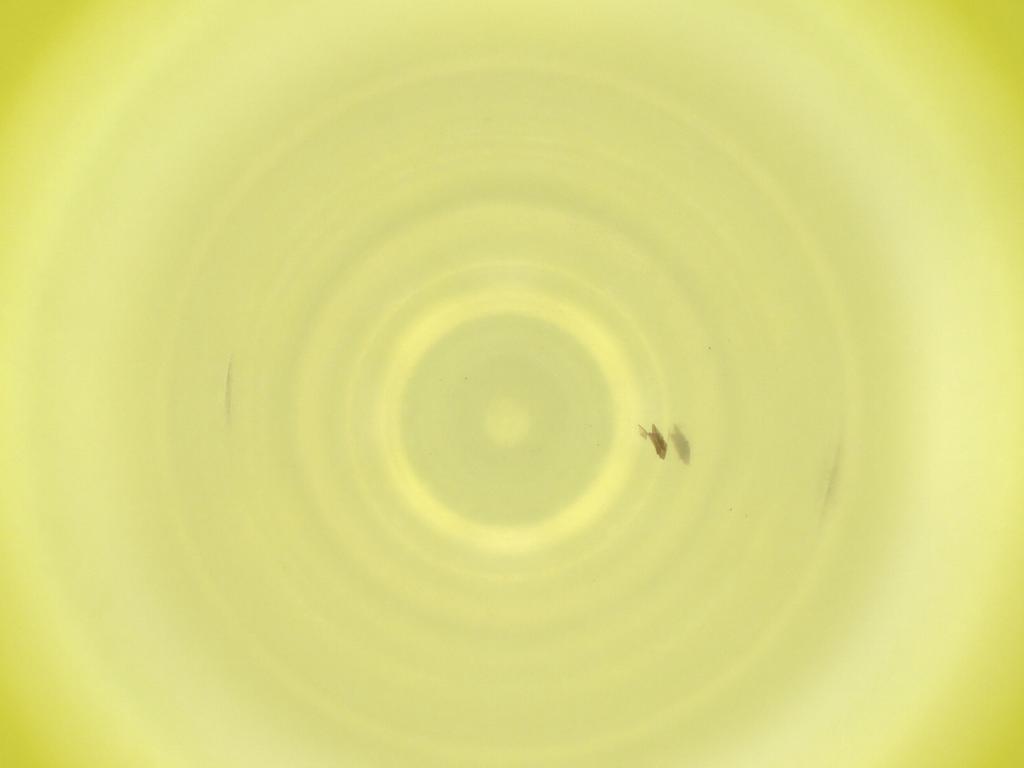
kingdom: Animalia
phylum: Arthropoda
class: Insecta
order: Diptera
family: Cecidomyiidae
